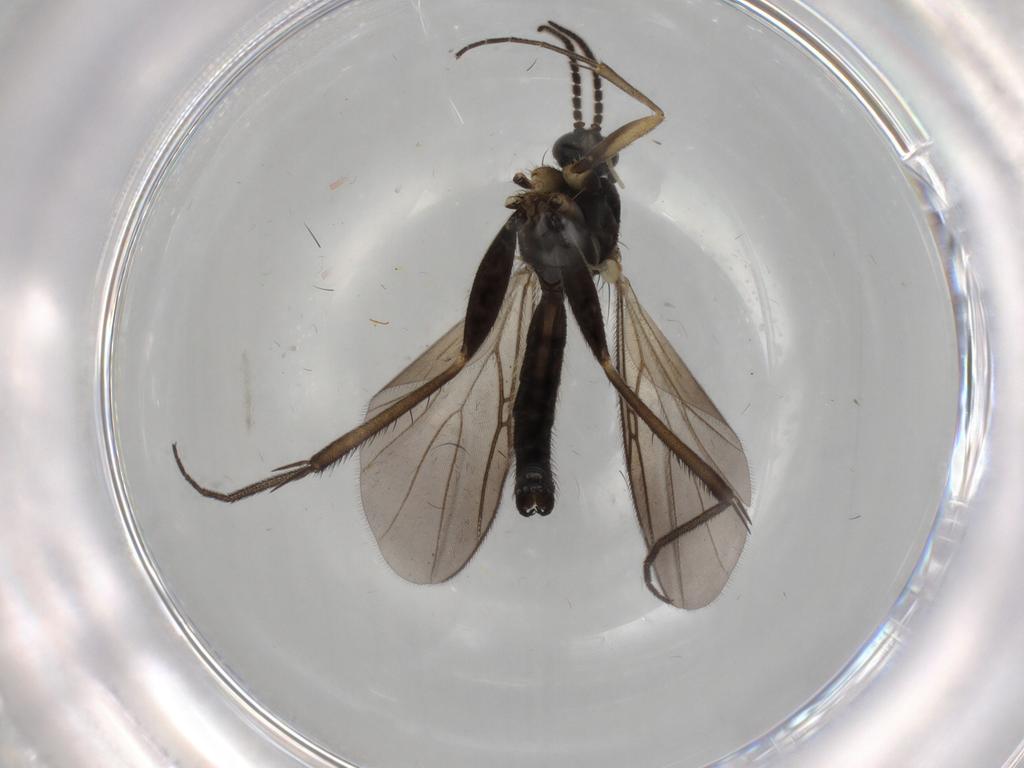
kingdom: Animalia
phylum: Arthropoda
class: Insecta
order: Diptera
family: Mycetophilidae
